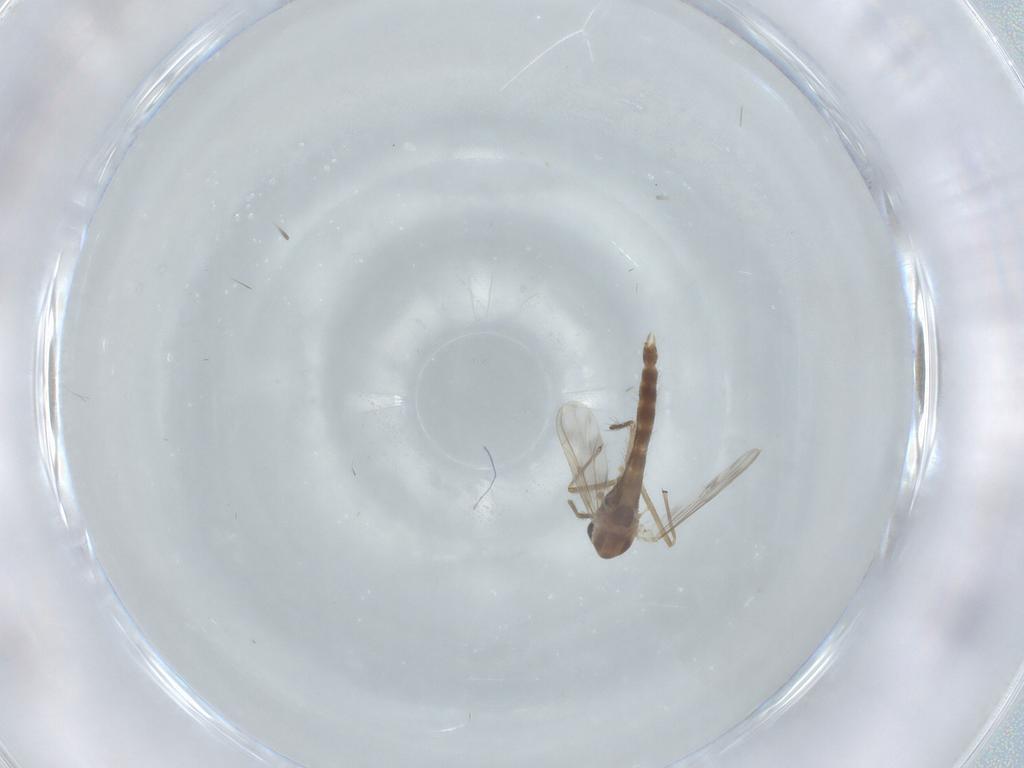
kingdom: Animalia
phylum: Arthropoda
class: Insecta
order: Diptera
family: Chironomidae
